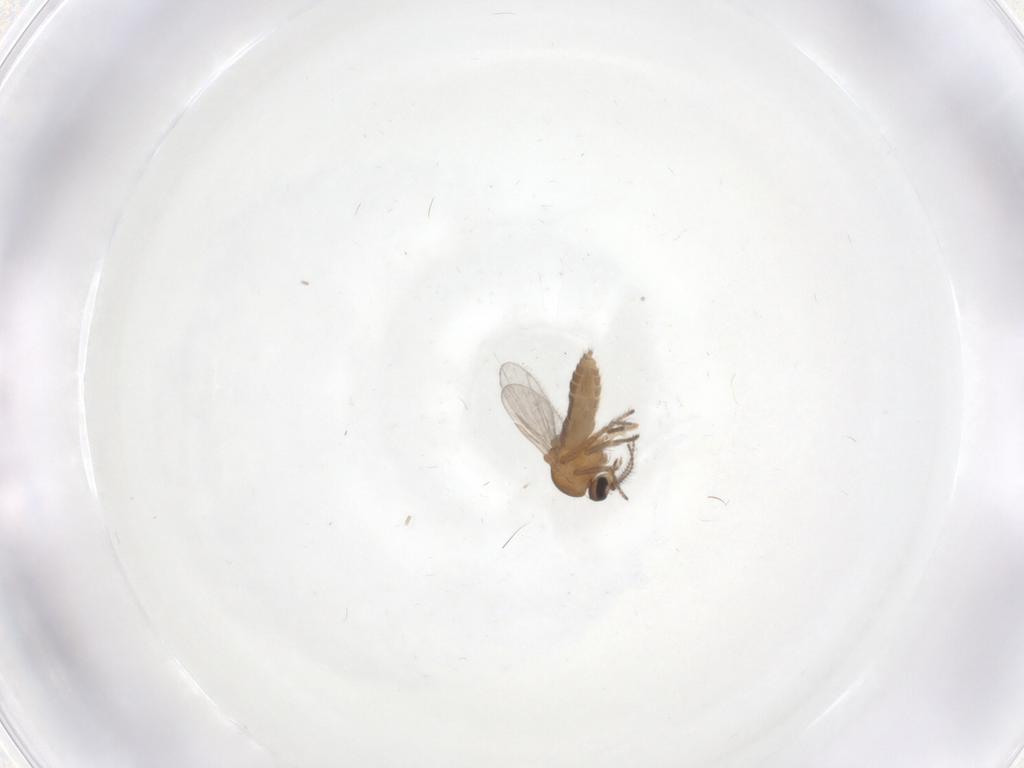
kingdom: Animalia
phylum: Arthropoda
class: Insecta
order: Diptera
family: Ceratopogonidae
